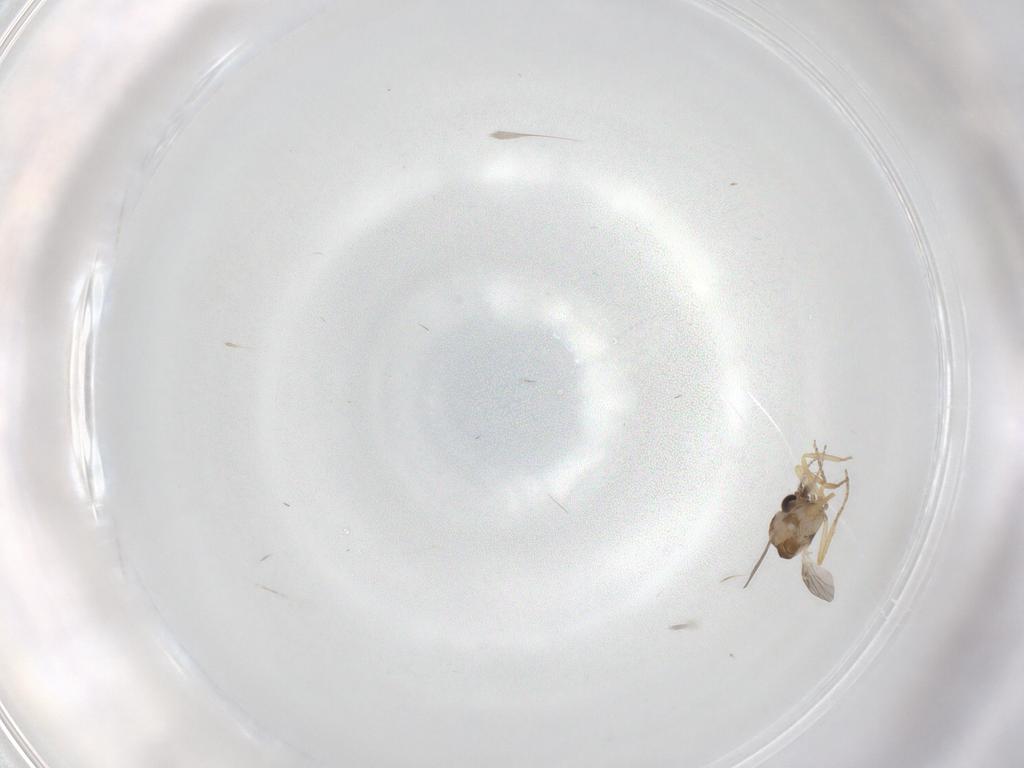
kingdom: Animalia
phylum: Arthropoda
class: Insecta
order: Diptera
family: Ceratopogonidae
